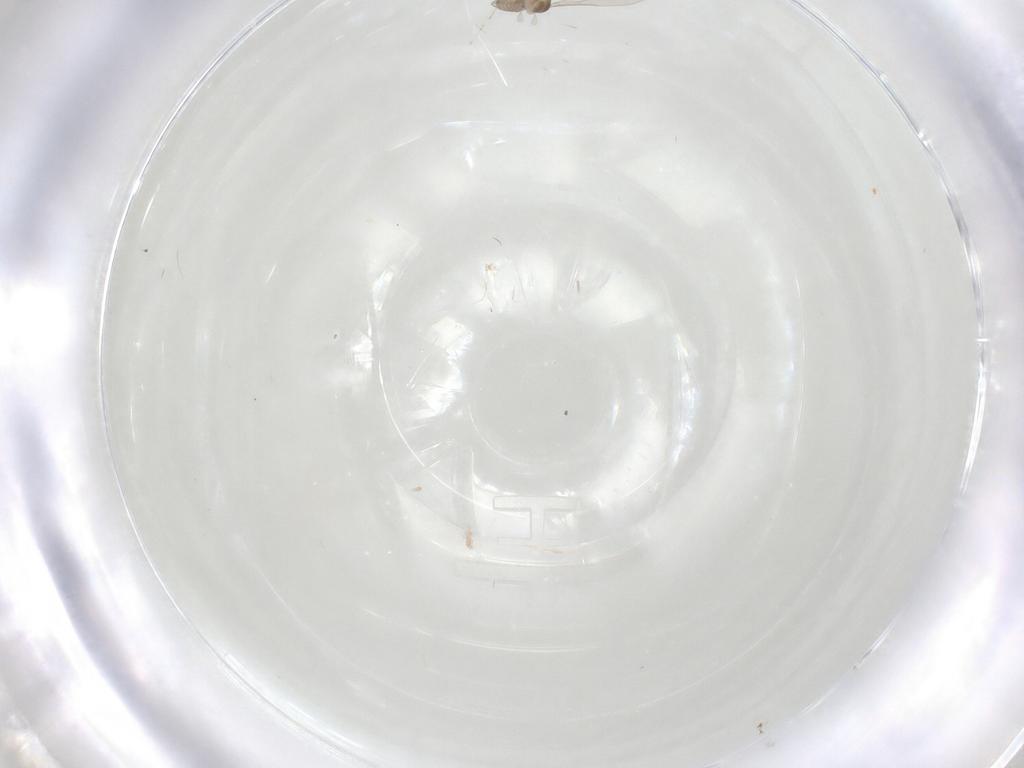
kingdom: Animalia
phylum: Arthropoda
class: Insecta
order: Diptera
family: Cecidomyiidae
